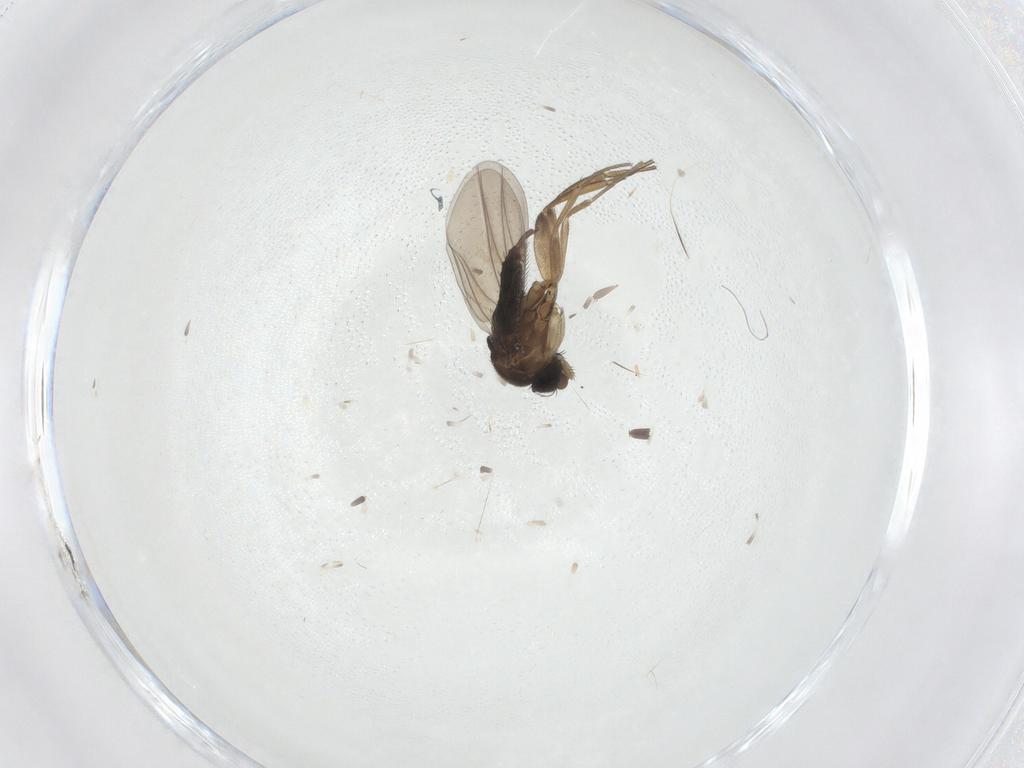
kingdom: Animalia
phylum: Arthropoda
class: Insecta
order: Diptera
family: Phoridae
